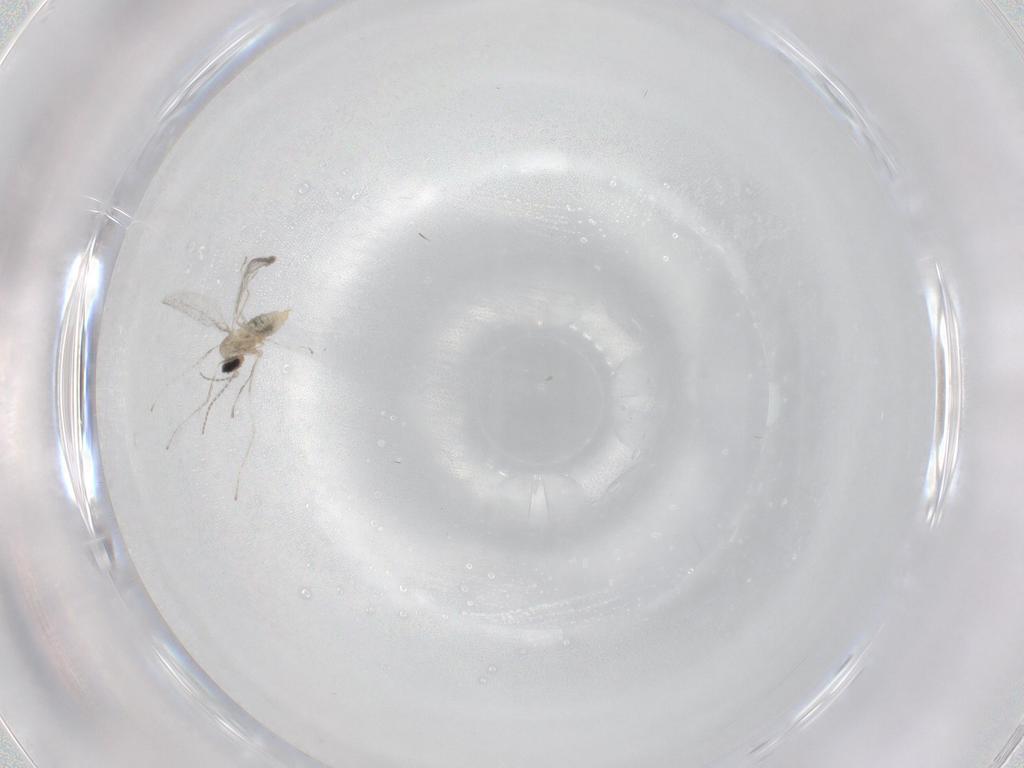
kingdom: Animalia
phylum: Arthropoda
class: Insecta
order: Diptera
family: Cecidomyiidae
